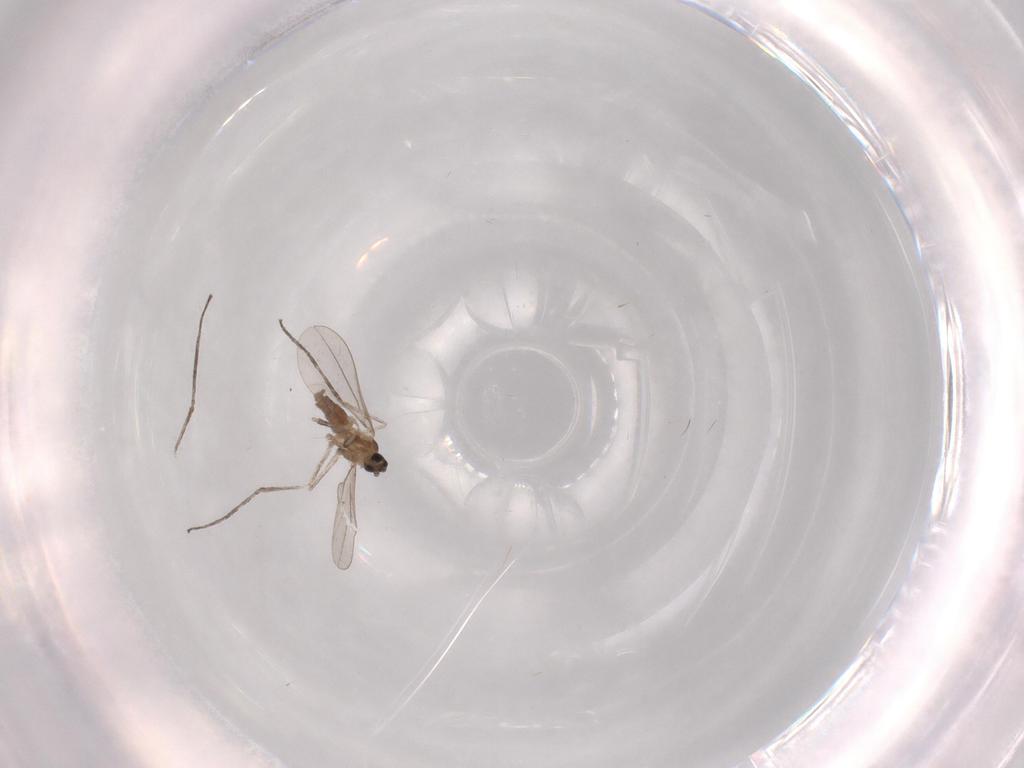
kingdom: Animalia
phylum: Arthropoda
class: Insecta
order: Diptera
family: Cecidomyiidae
